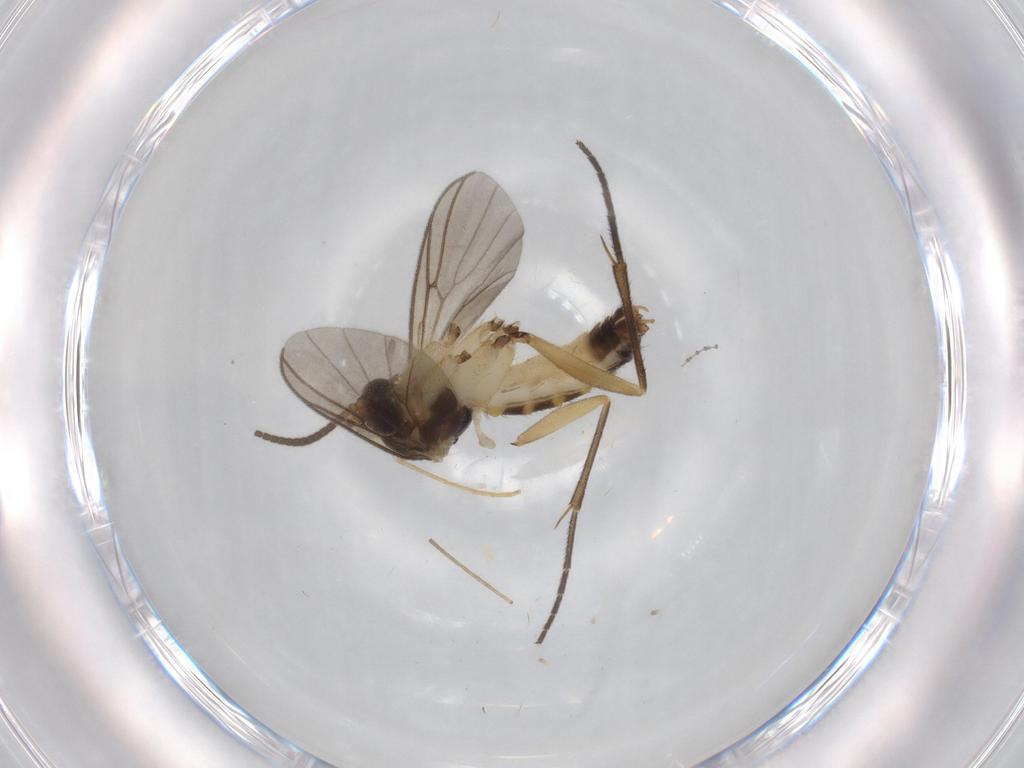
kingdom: Animalia
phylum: Arthropoda
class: Insecta
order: Diptera
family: Mycetophilidae
